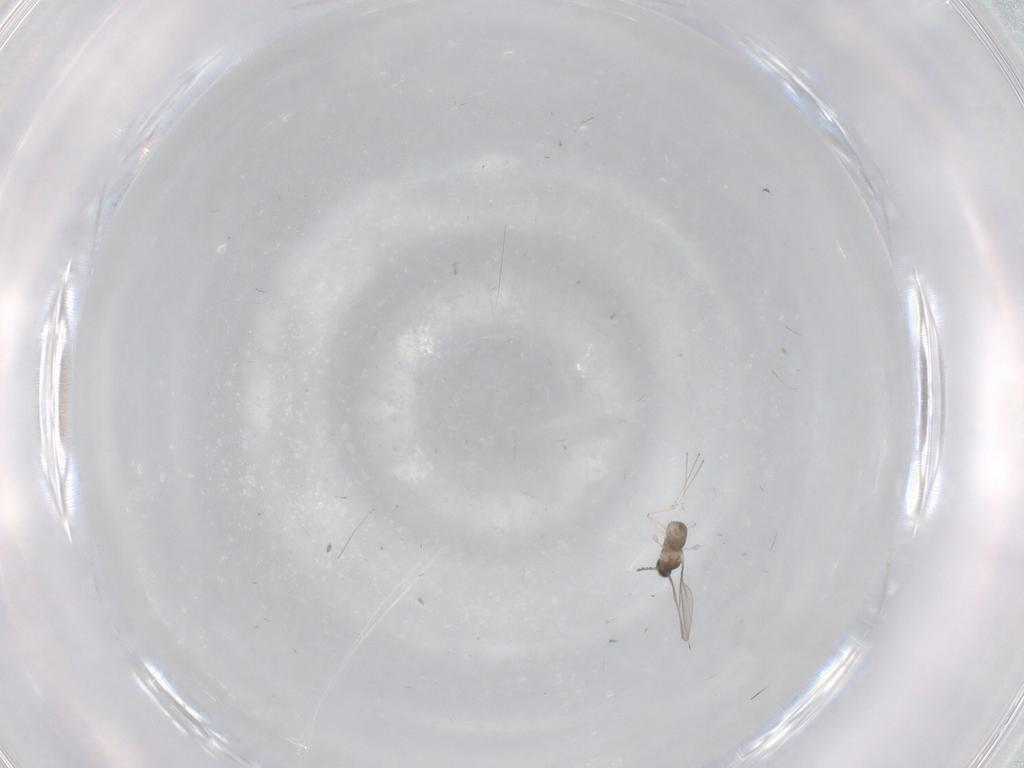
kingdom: Animalia
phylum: Arthropoda
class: Insecta
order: Diptera
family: Cecidomyiidae
